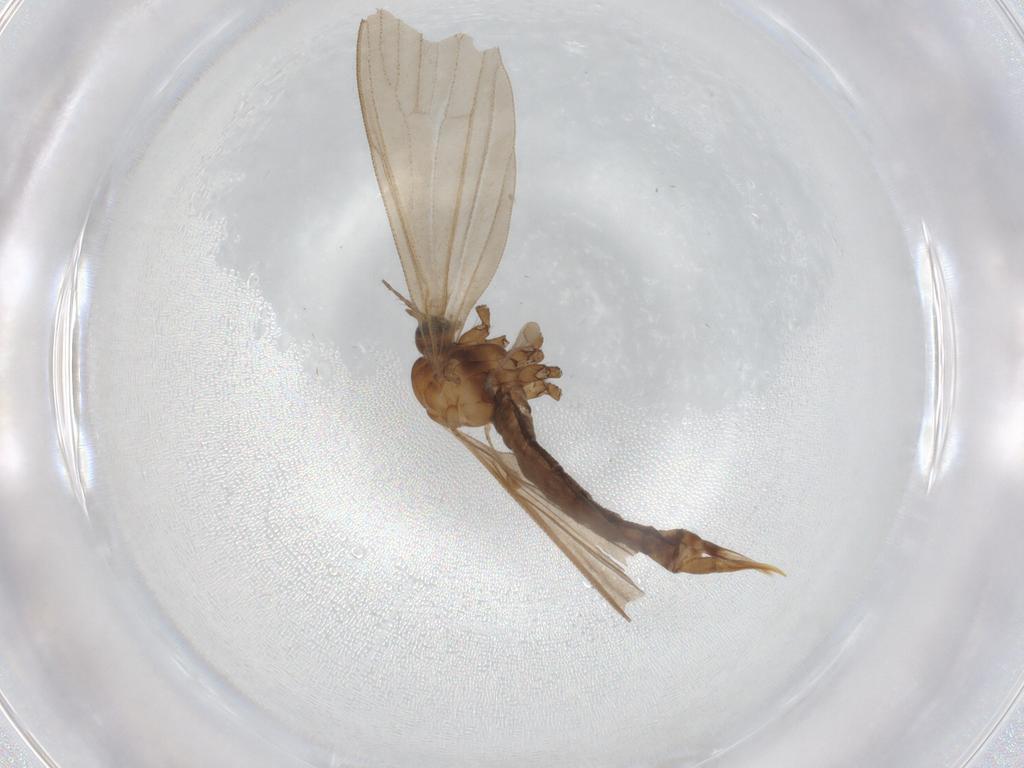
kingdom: Animalia
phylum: Arthropoda
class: Insecta
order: Diptera
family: Limoniidae
